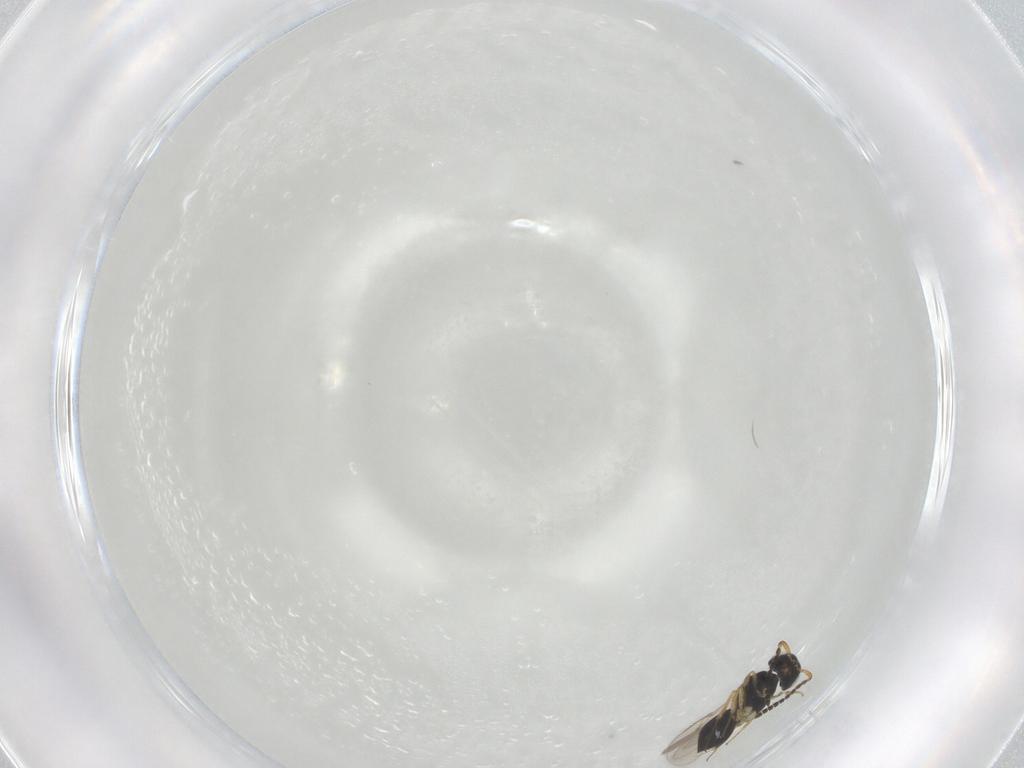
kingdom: Animalia
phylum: Arthropoda
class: Insecta
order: Hymenoptera
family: Scelionidae
